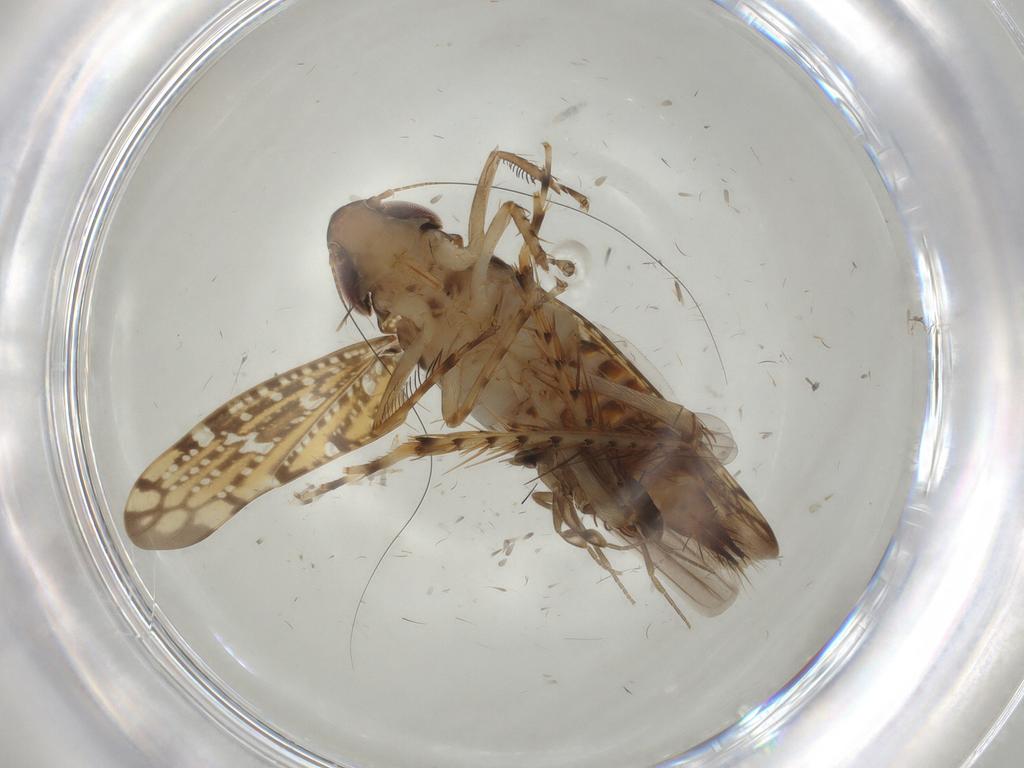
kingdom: Animalia
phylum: Arthropoda
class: Insecta
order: Hemiptera
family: Cicadellidae
